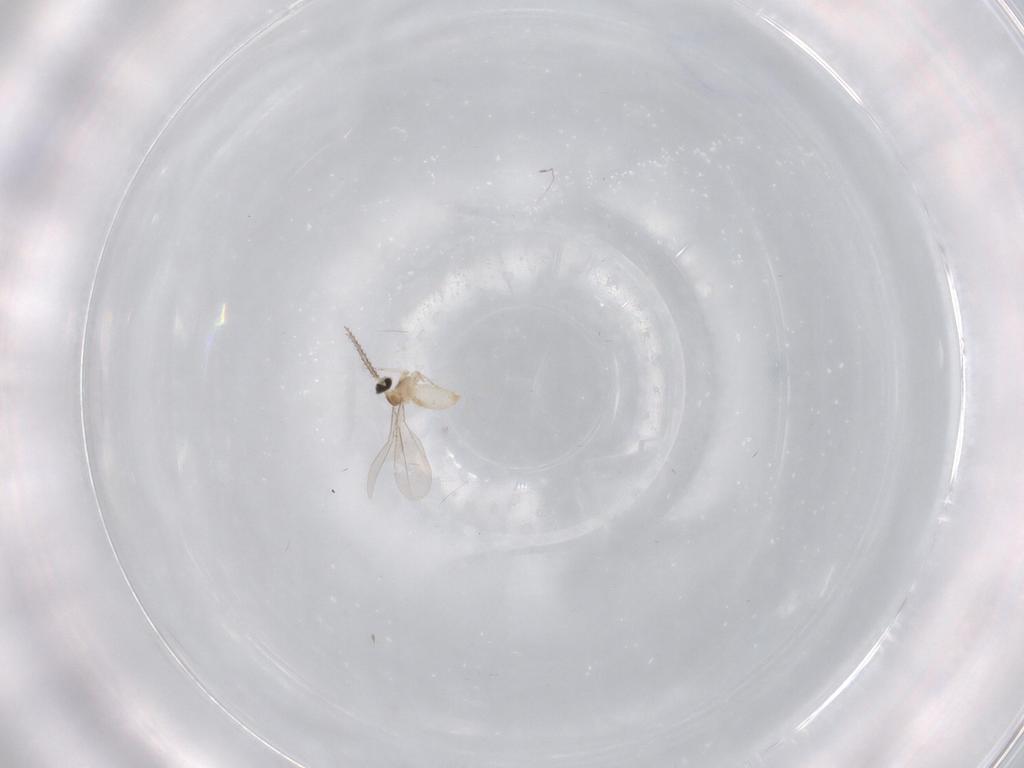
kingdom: Animalia
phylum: Arthropoda
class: Insecta
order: Diptera
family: Cecidomyiidae
